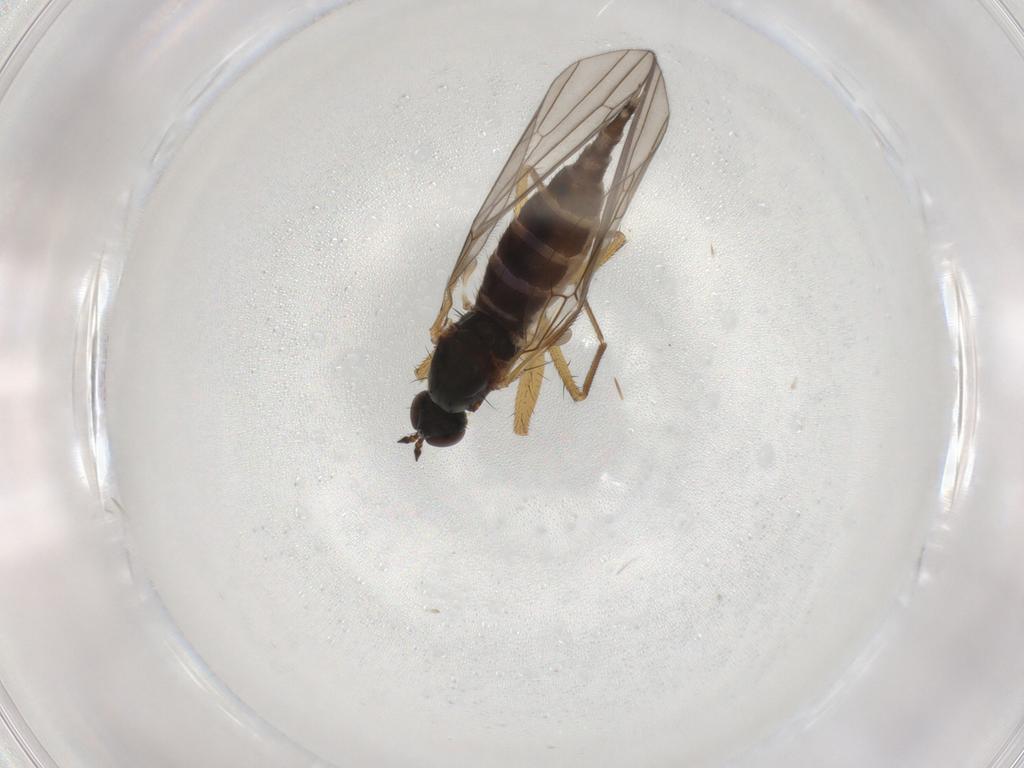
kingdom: Animalia
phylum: Arthropoda
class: Insecta
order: Diptera
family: Empididae
